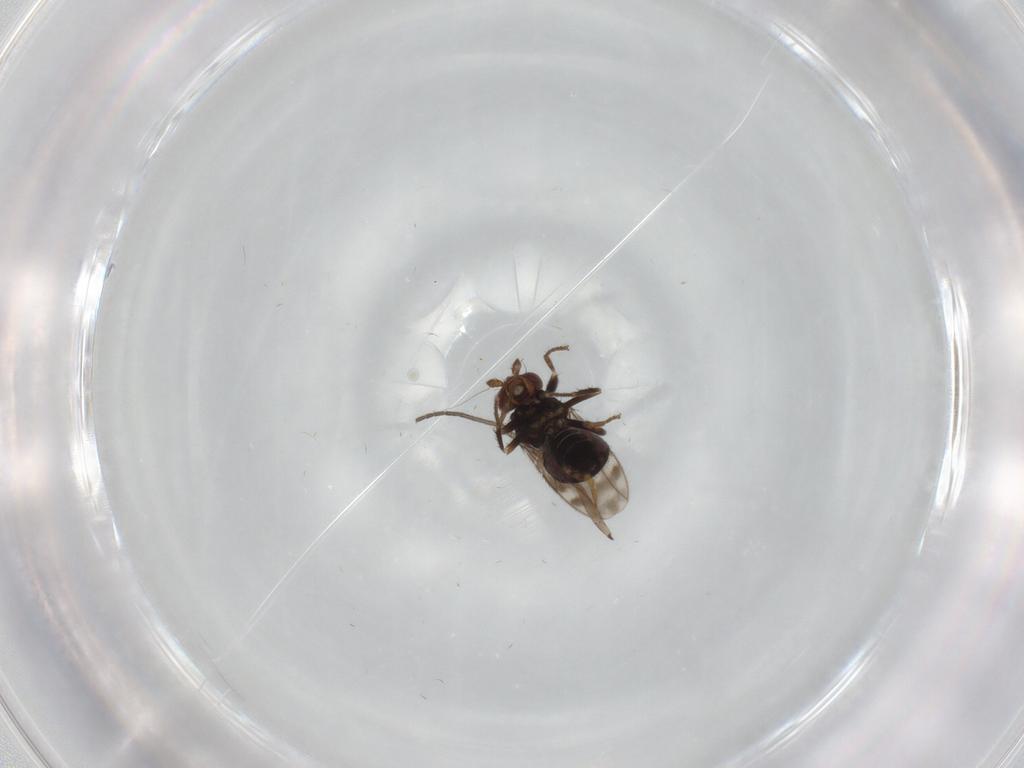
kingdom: Animalia
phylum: Arthropoda
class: Insecta
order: Diptera
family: Sphaeroceridae
